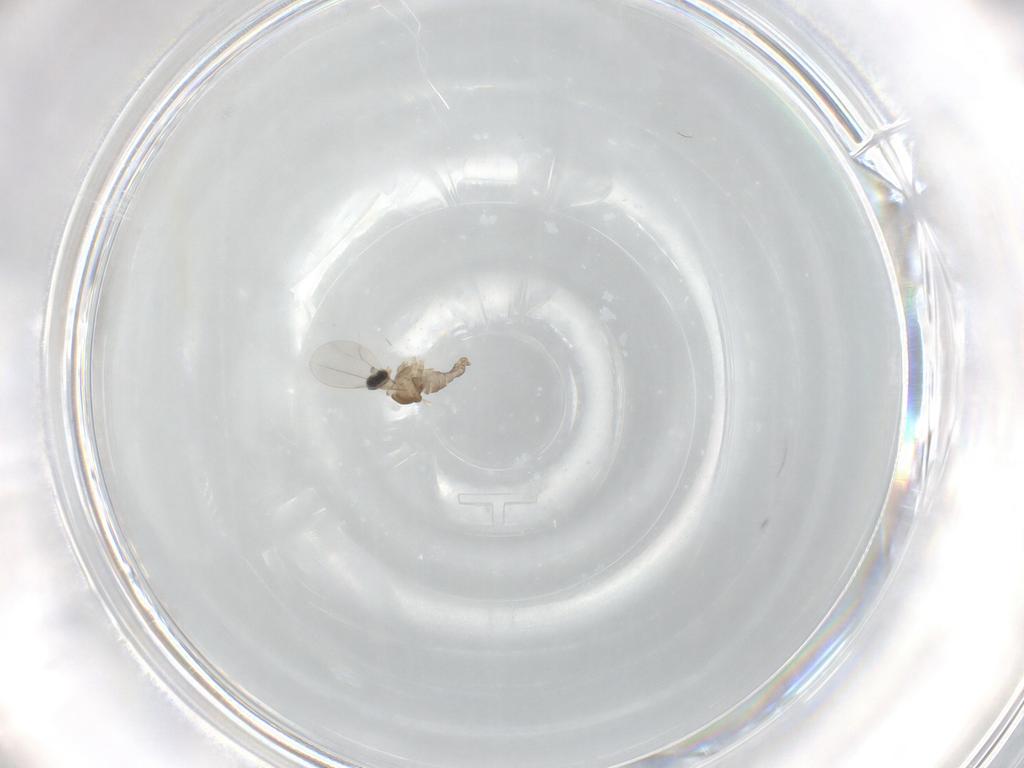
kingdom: Animalia
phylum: Arthropoda
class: Insecta
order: Diptera
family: Cecidomyiidae
